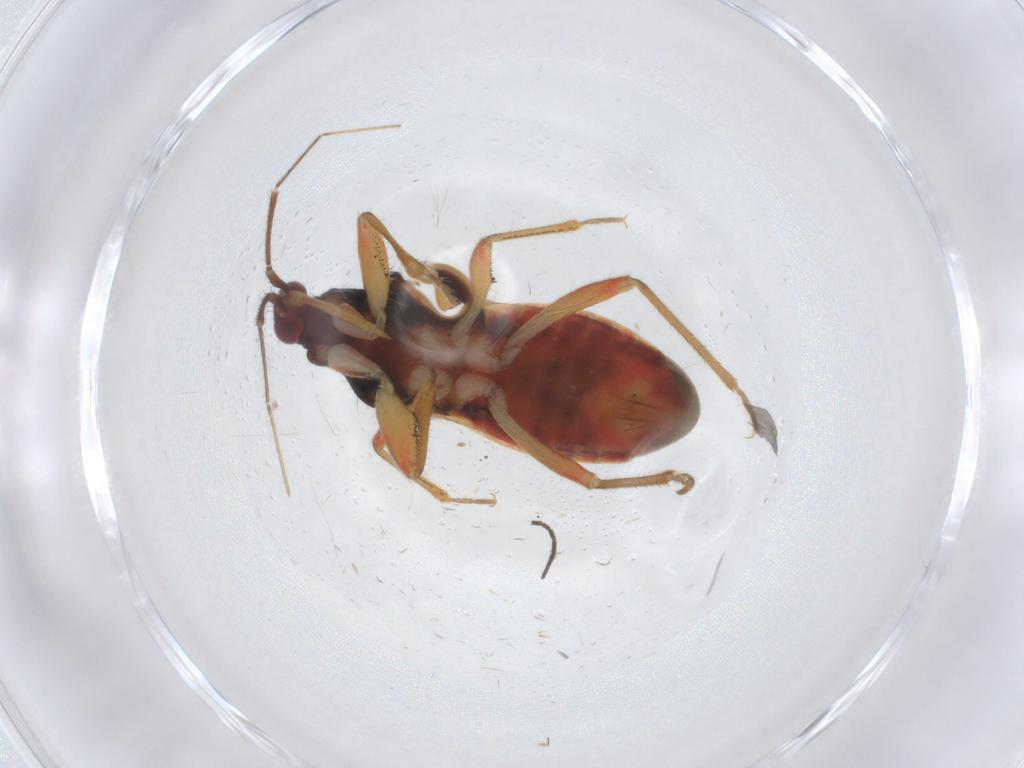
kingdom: Animalia
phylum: Arthropoda
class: Insecta
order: Hemiptera
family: Nabidae
